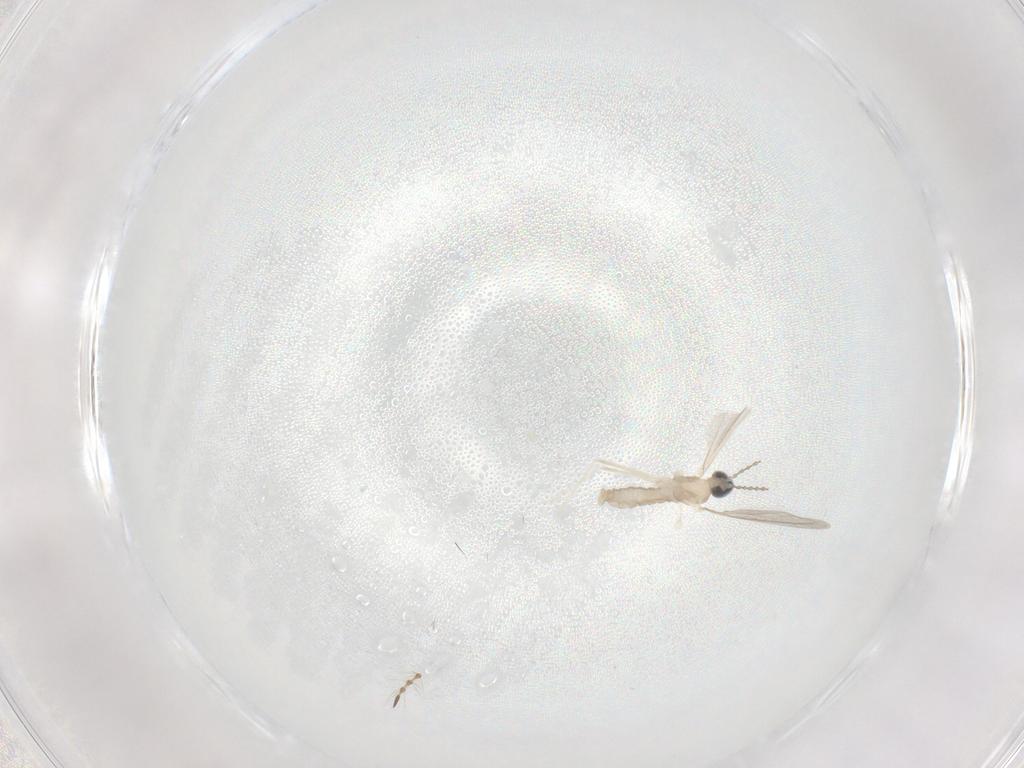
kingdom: Animalia
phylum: Arthropoda
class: Insecta
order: Diptera
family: Cecidomyiidae
